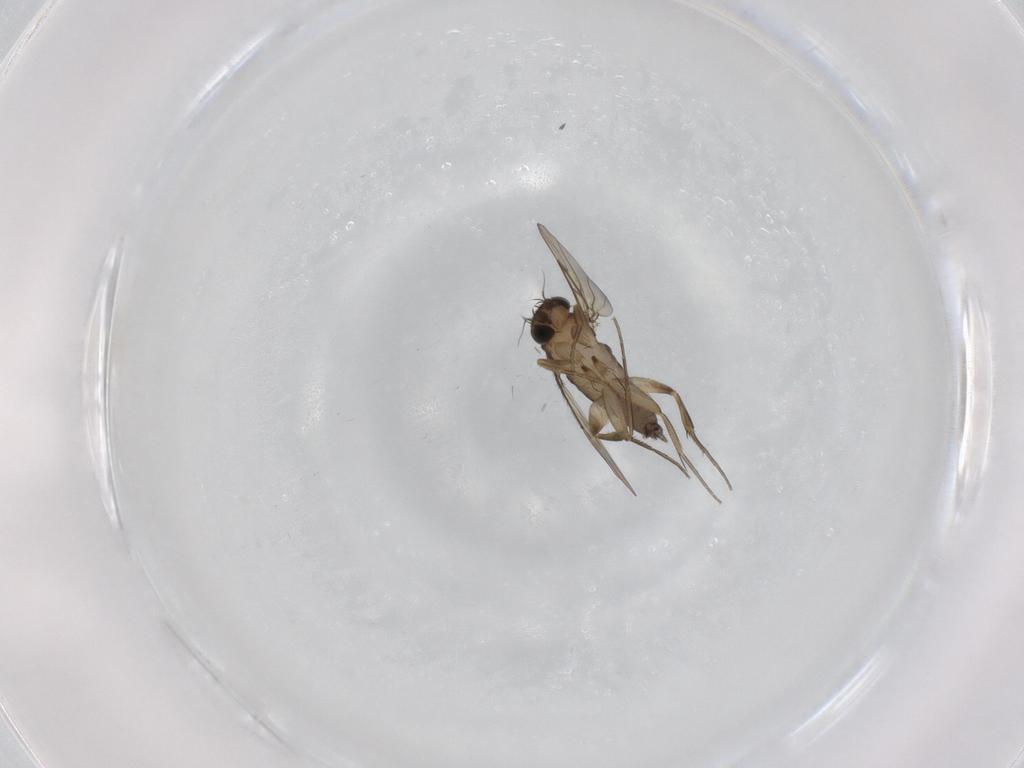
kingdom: Animalia
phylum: Arthropoda
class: Insecta
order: Diptera
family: Phoridae
